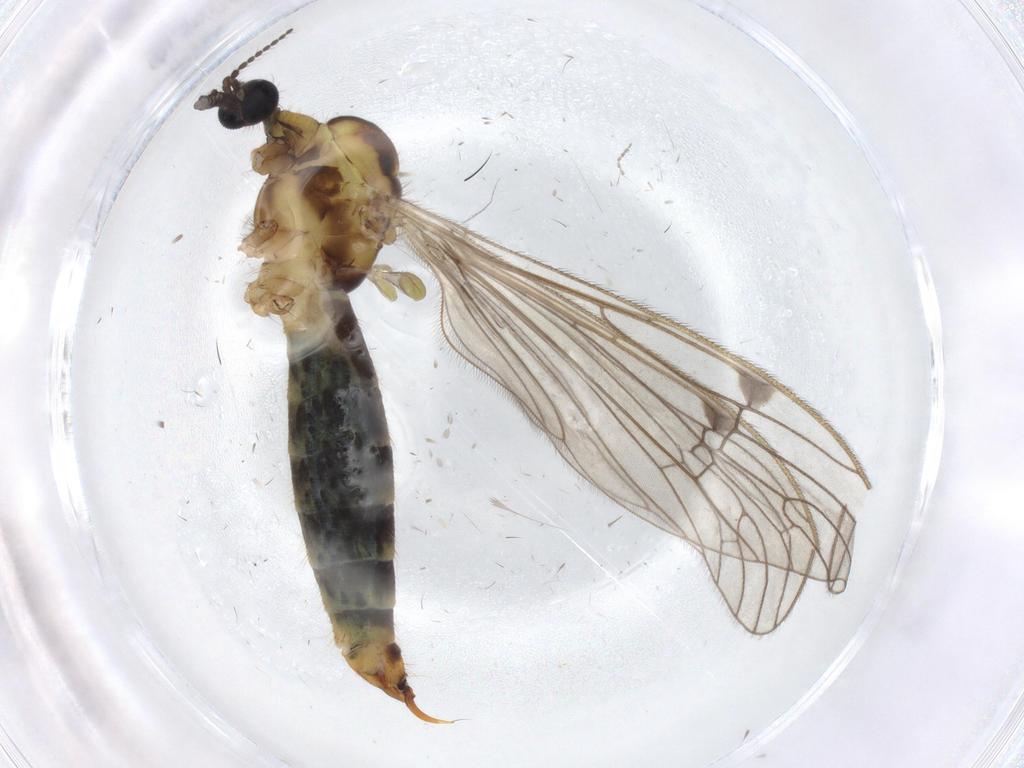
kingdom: Animalia
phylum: Arthropoda
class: Insecta
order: Diptera
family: Limoniidae
